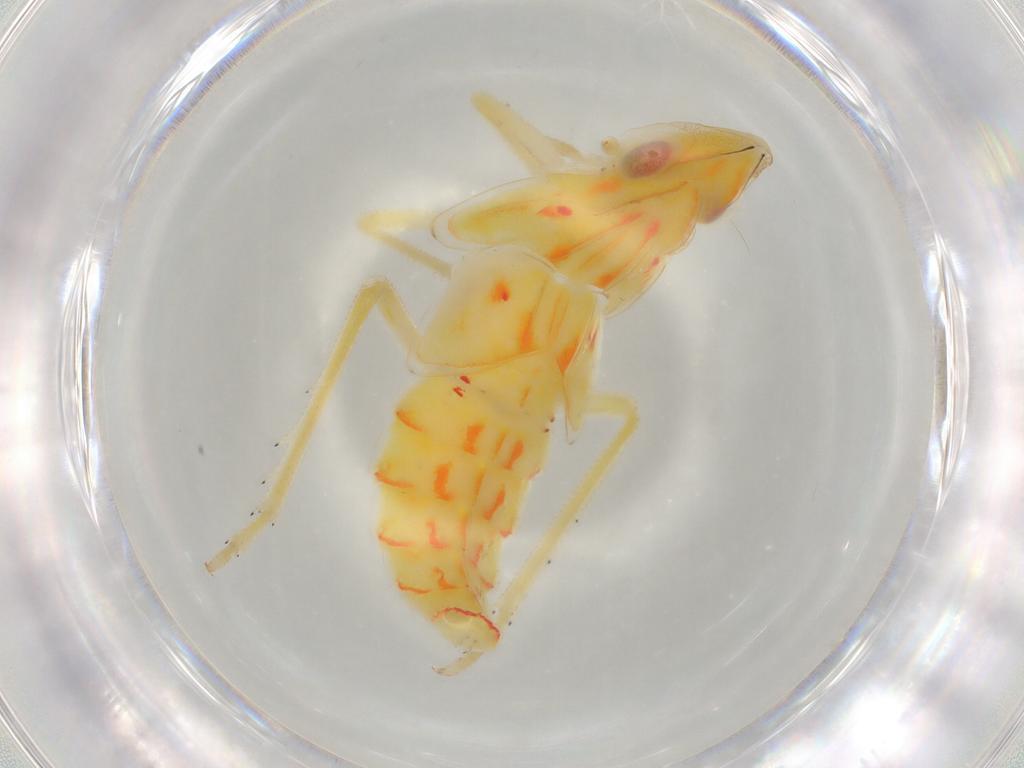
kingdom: Animalia
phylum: Arthropoda
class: Insecta
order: Hemiptera
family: Tropiduchidae
